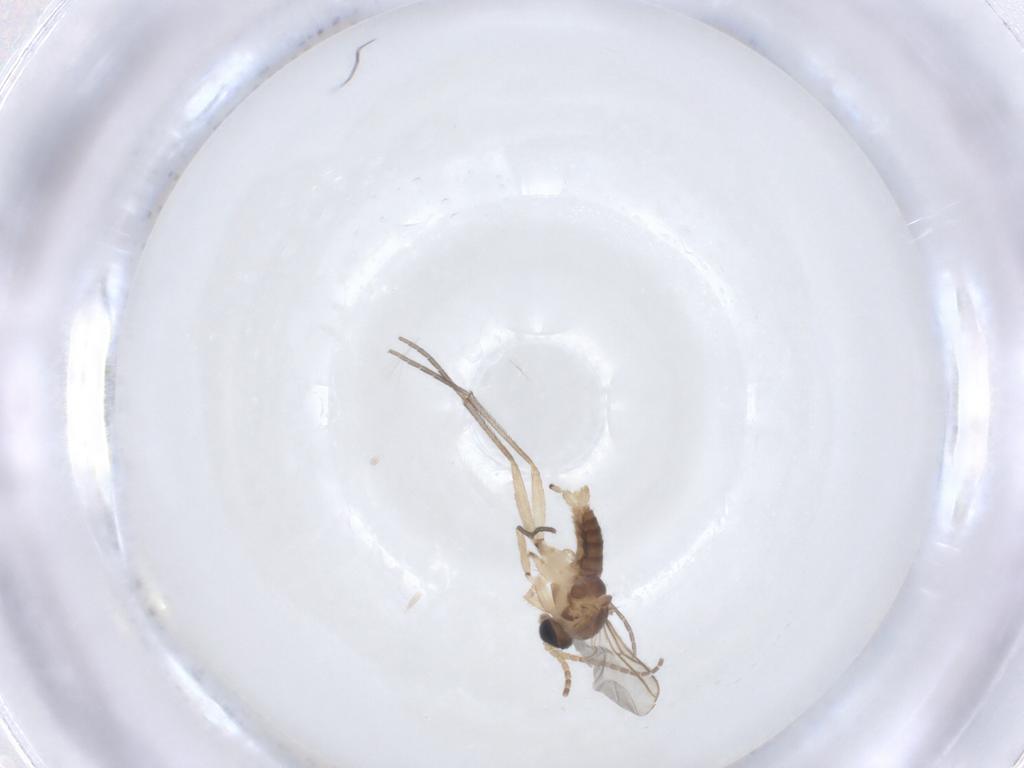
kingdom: Animalia
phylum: Arthropoda
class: Insecta
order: Diptera
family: Sciaridae
